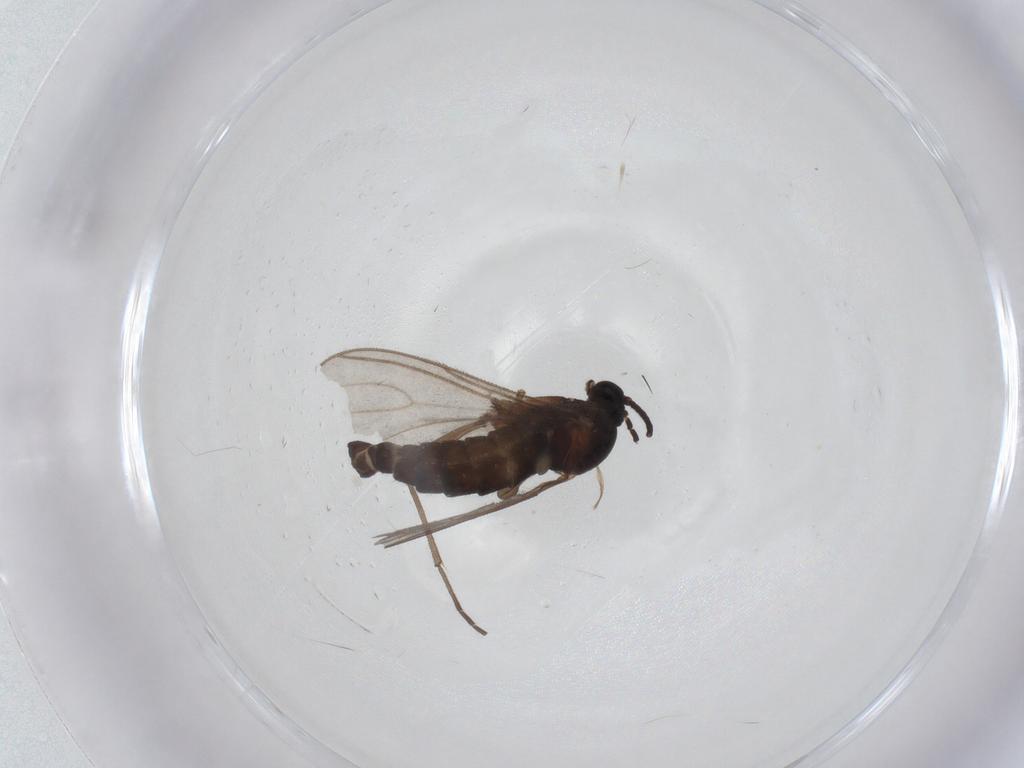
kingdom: Animalia
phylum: Arthropoda
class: Insecta
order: Diptera
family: Sciaridae
